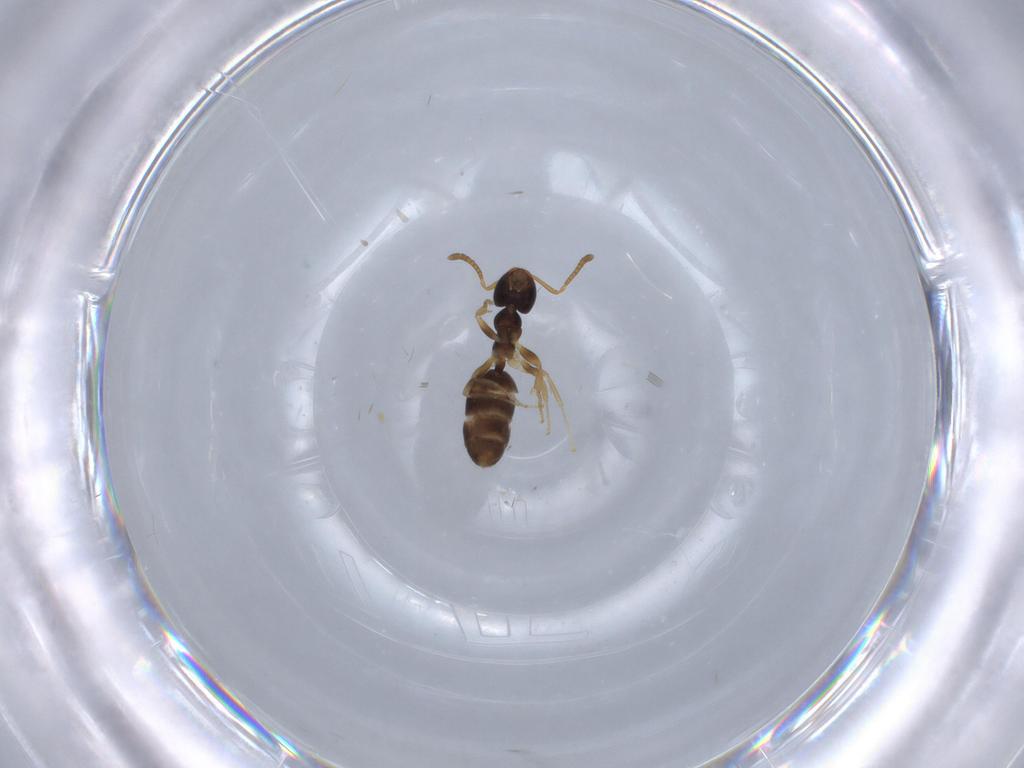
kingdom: Animalia
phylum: Arthropoda
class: Insecta
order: Hymenoptera
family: Formicidae
